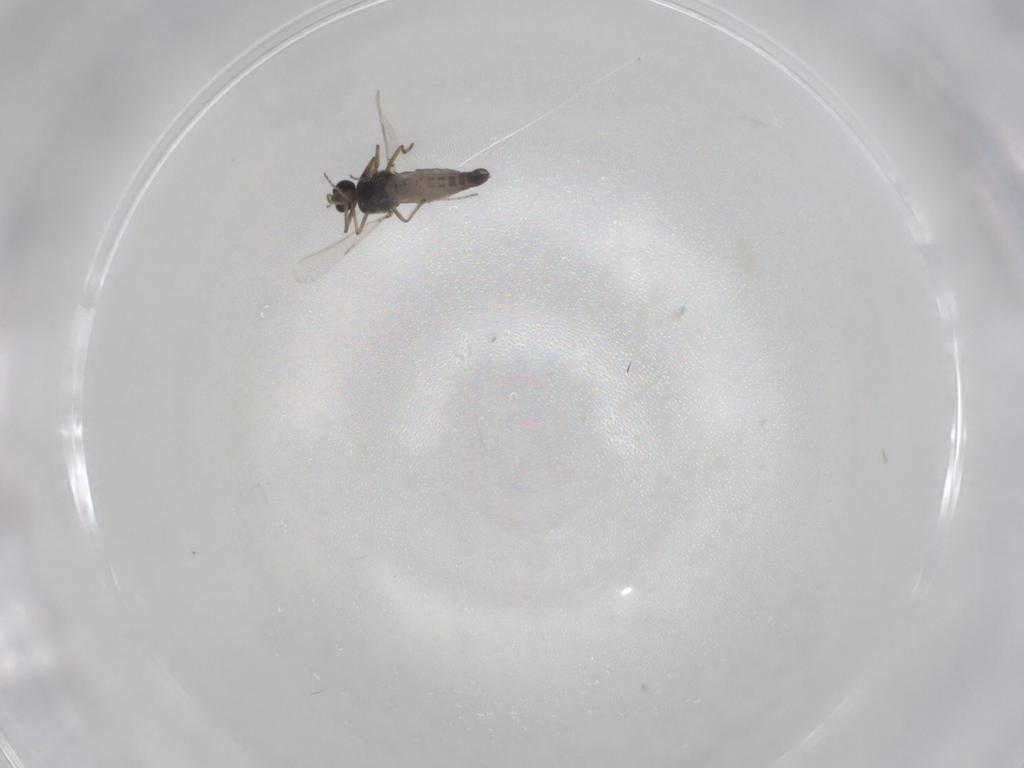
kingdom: Animalia
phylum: Arthropoda
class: Insecta
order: Diptera
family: Ceratopogonidae
